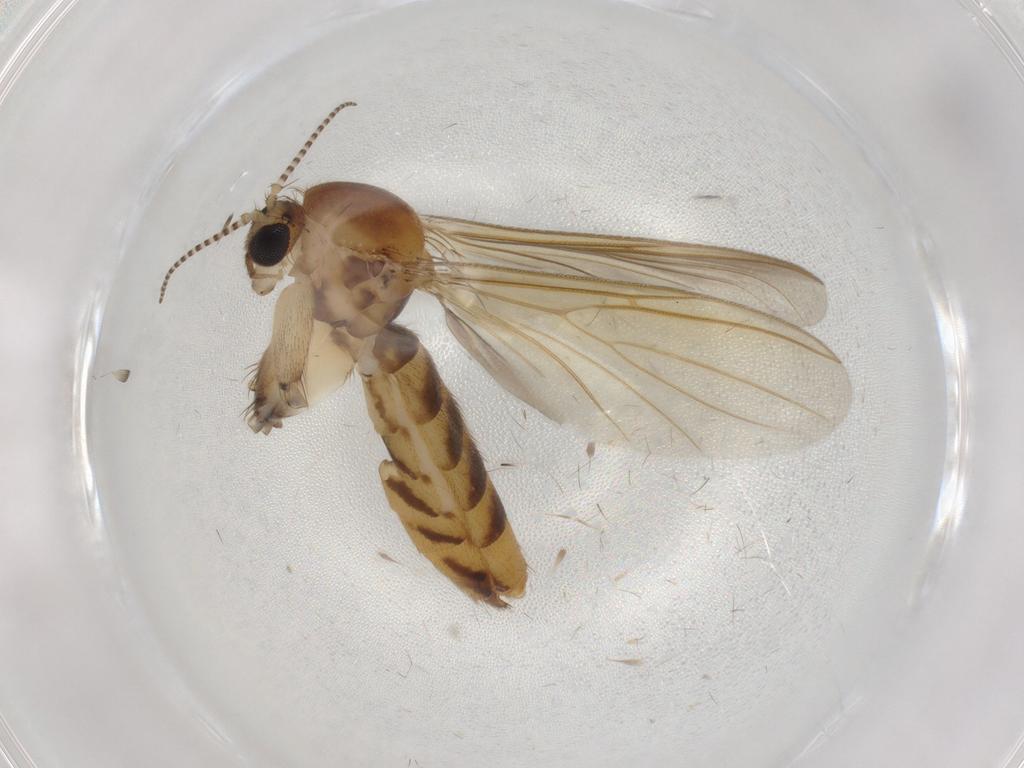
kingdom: Animalia
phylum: Arthropoda
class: Insecta
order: Diptera
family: Mycetophilidae
